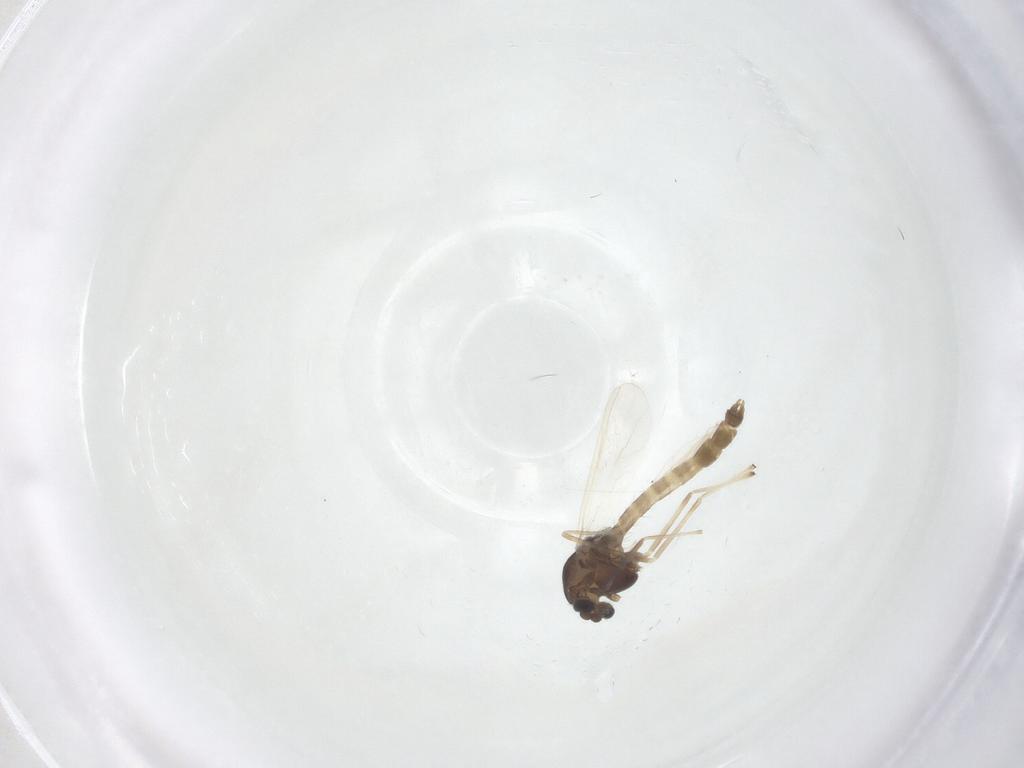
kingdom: Animalia
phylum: Arthropoda
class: Insecta
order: Diptera
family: Chironomidae
